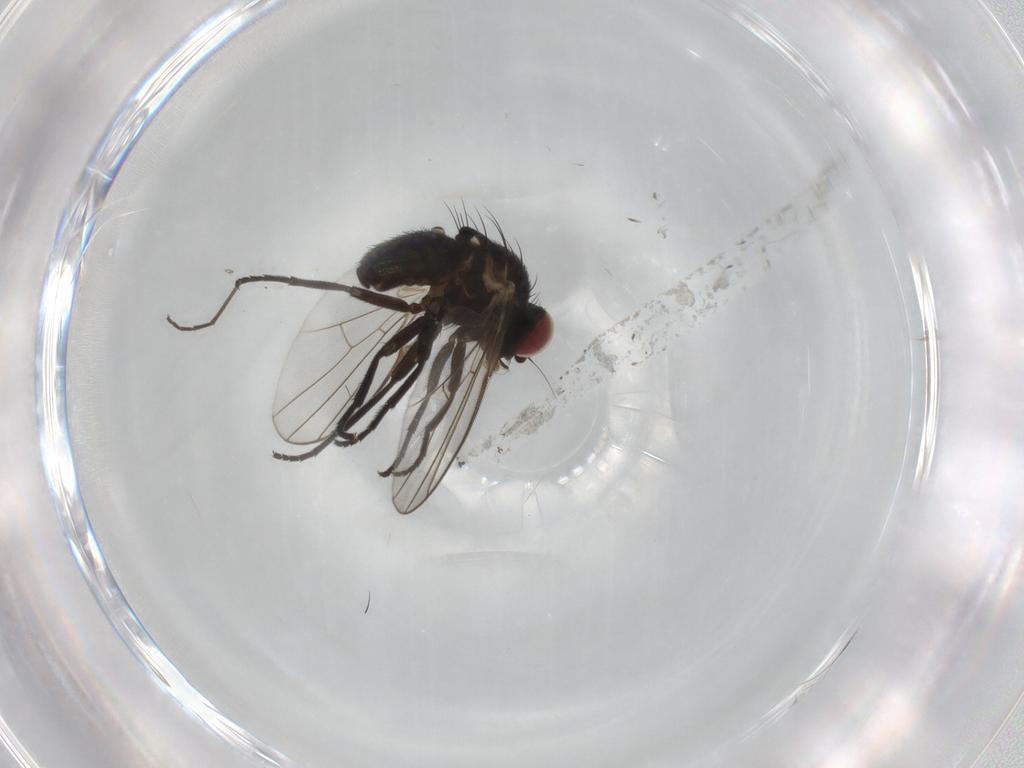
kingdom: Animalia
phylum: Arthropoda
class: Insecta
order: Diptera
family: Agromyzidae
